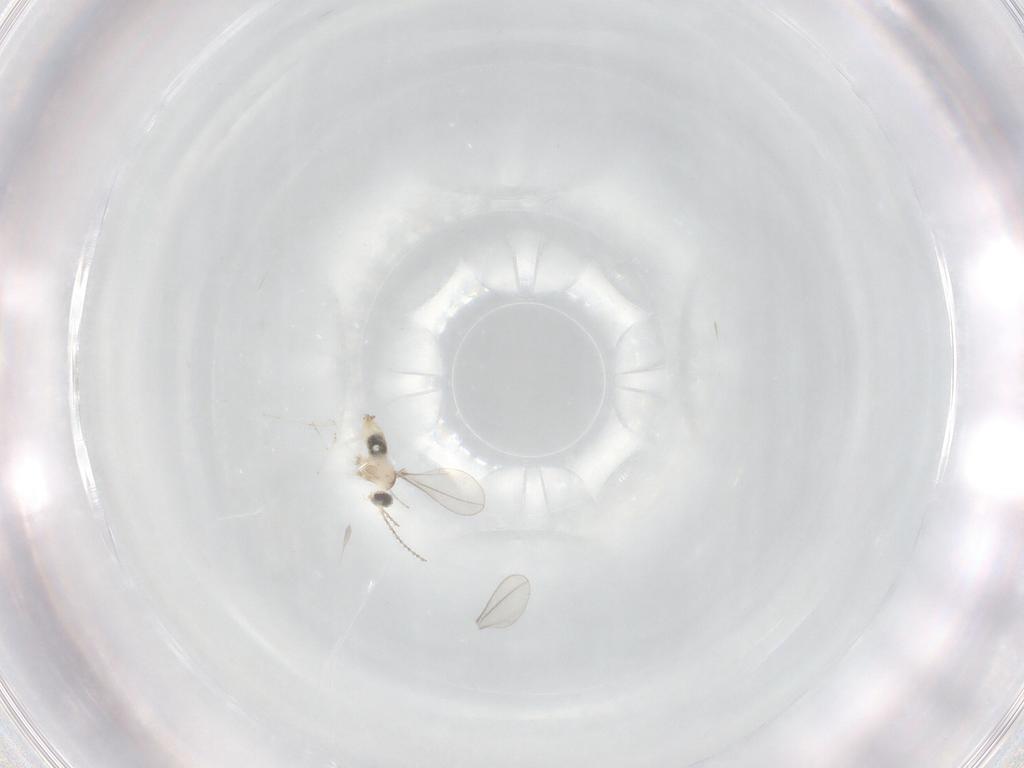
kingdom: Animalia
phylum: Arthropoda
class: Insecta
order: Diptera
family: Cecidomyiidae
